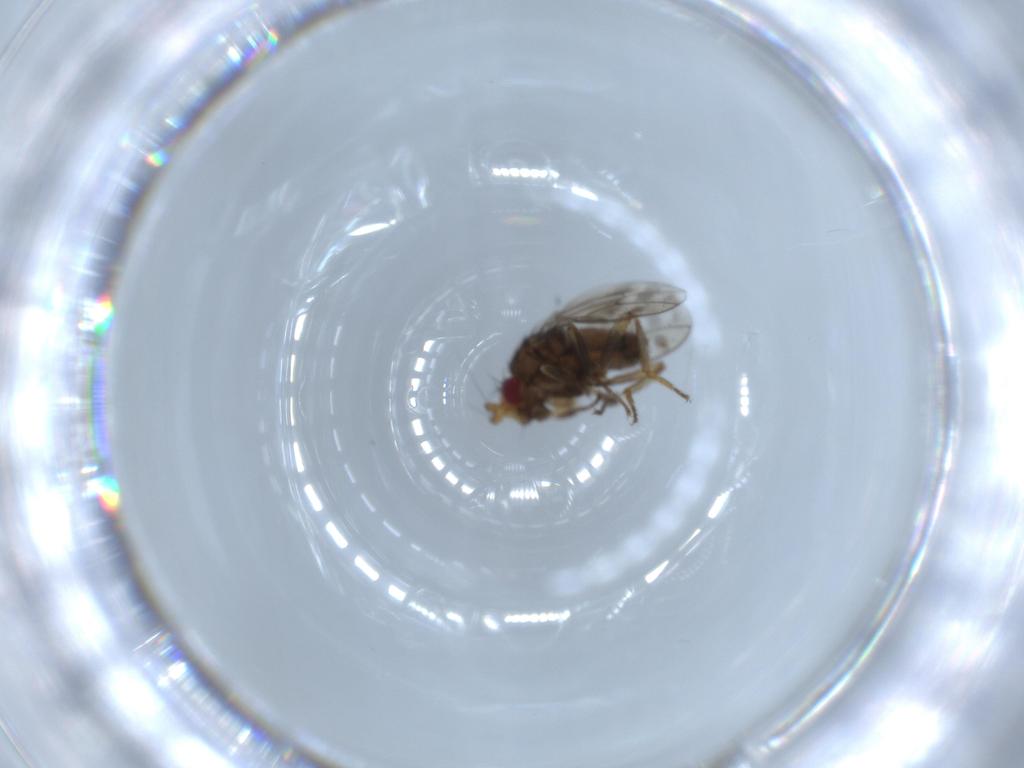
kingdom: Animalia
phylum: Arthropoda
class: Insecta
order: Diptera
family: Sphaeroceridae
